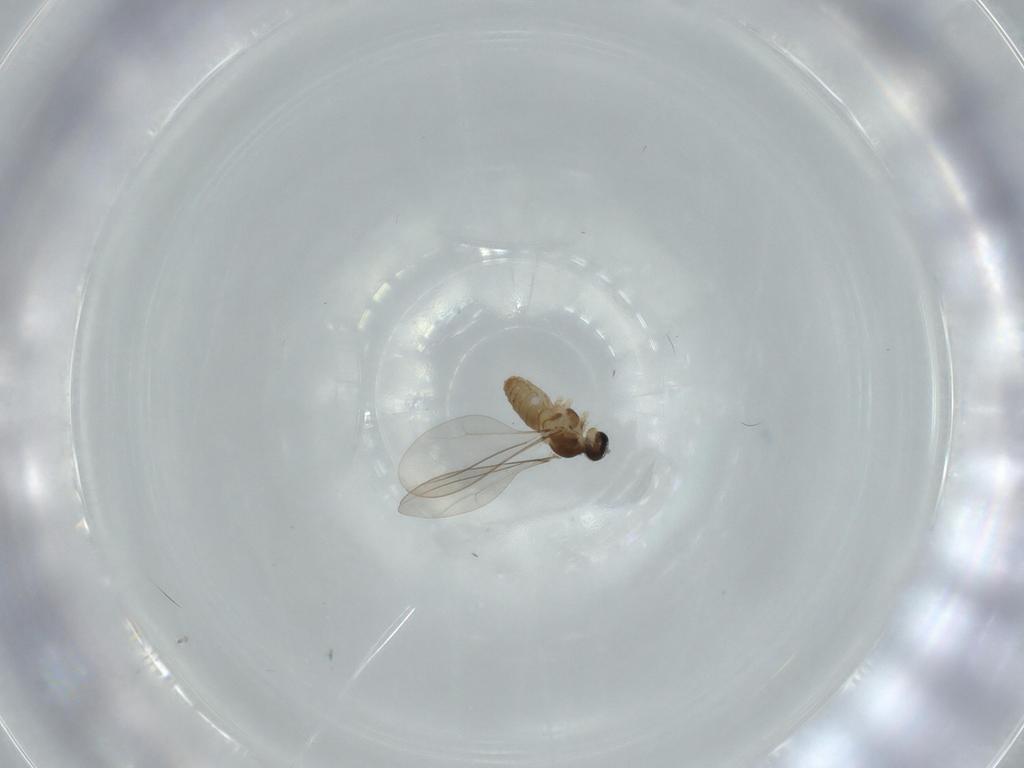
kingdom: Animalia
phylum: Arthropoda
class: Insecta
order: Diptera
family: Cecidomyiidae
